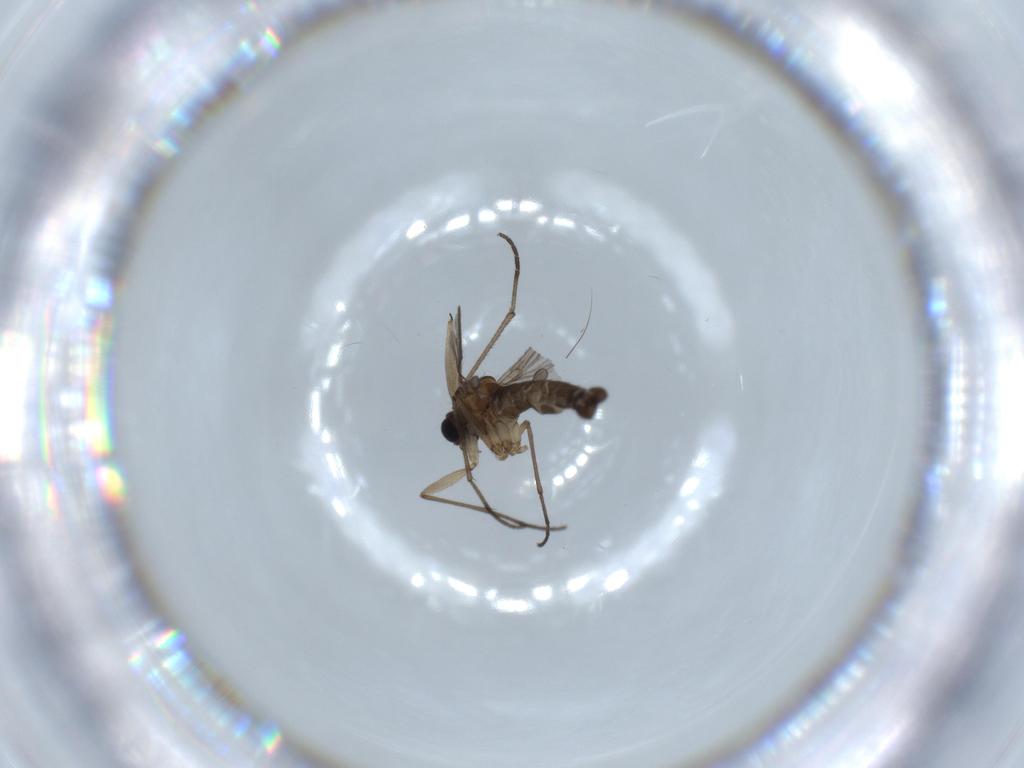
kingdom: Animalia
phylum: Arthropoda
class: Insecta
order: Diptera
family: Sciaridae
